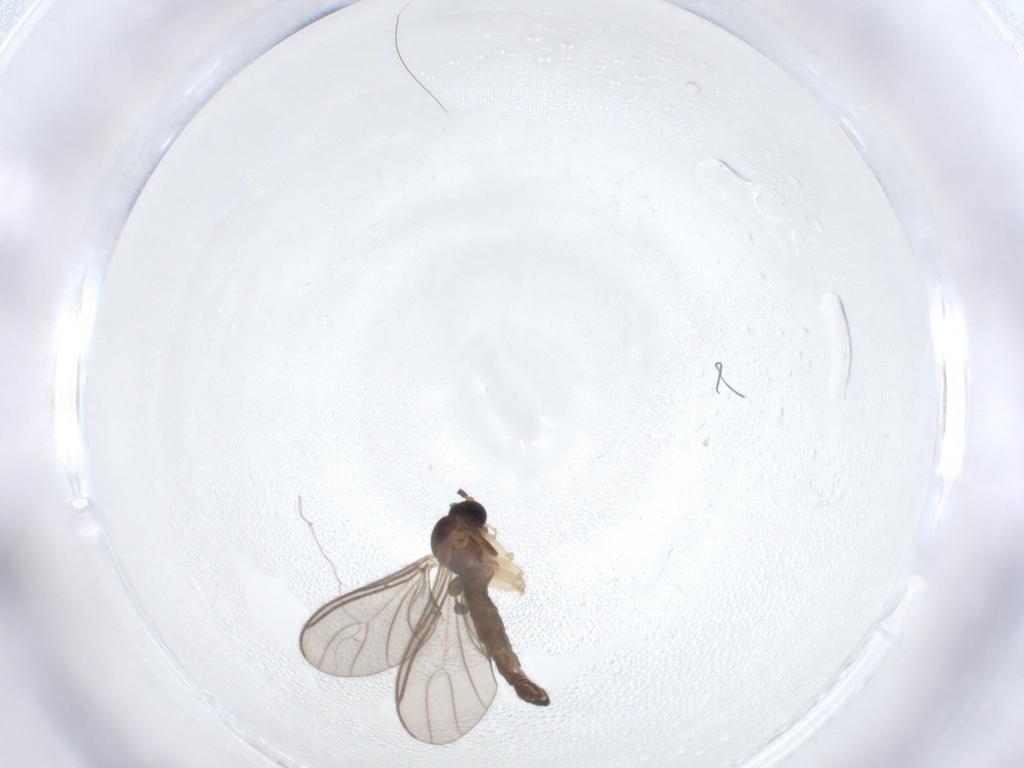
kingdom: Animalia
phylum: Arthropoda
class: Insecta
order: Diptera
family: Sciaridae
